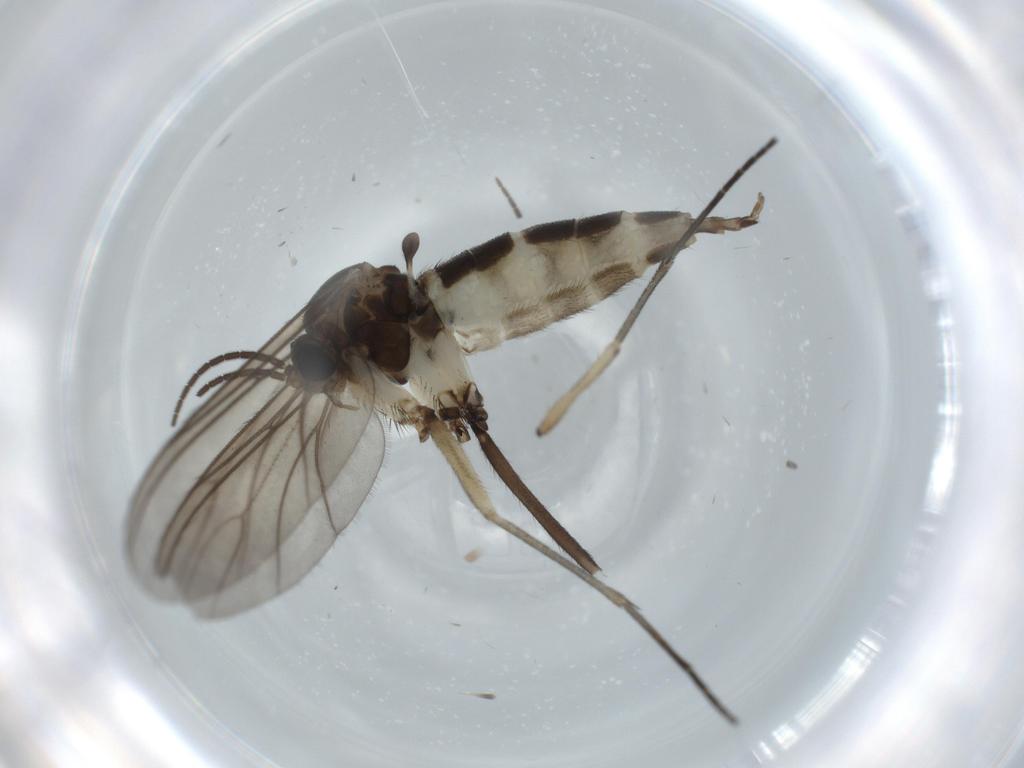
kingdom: Animalia
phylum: Arthropoda
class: Insecta
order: Diptera
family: Sciaridae
